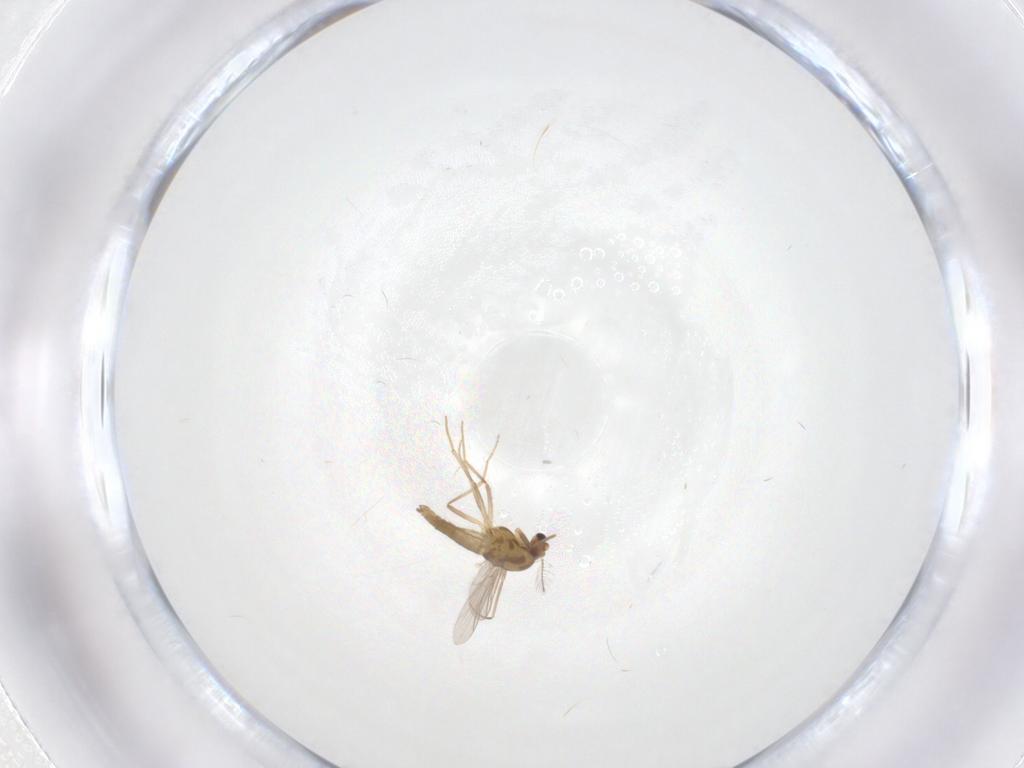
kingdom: Animalia
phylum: Arthropoda
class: Insecta
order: Diptera
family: Chironomidae
